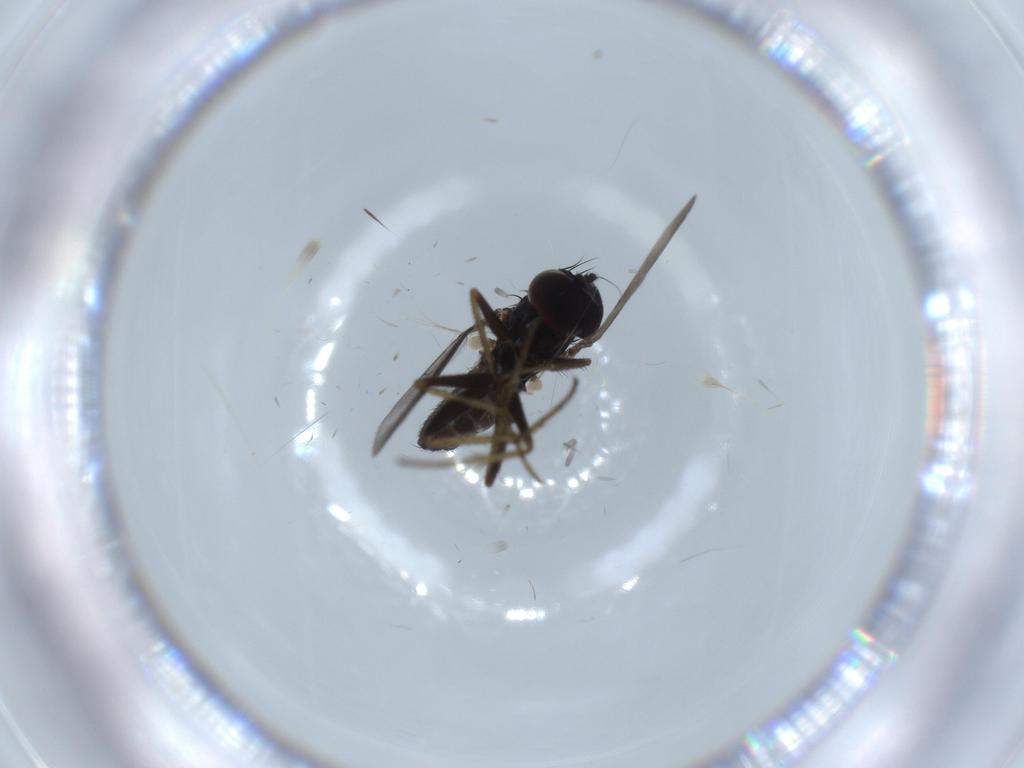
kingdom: Animalia
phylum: Arthropoda
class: Insecta
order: Diptera
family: Dolichopodidae
